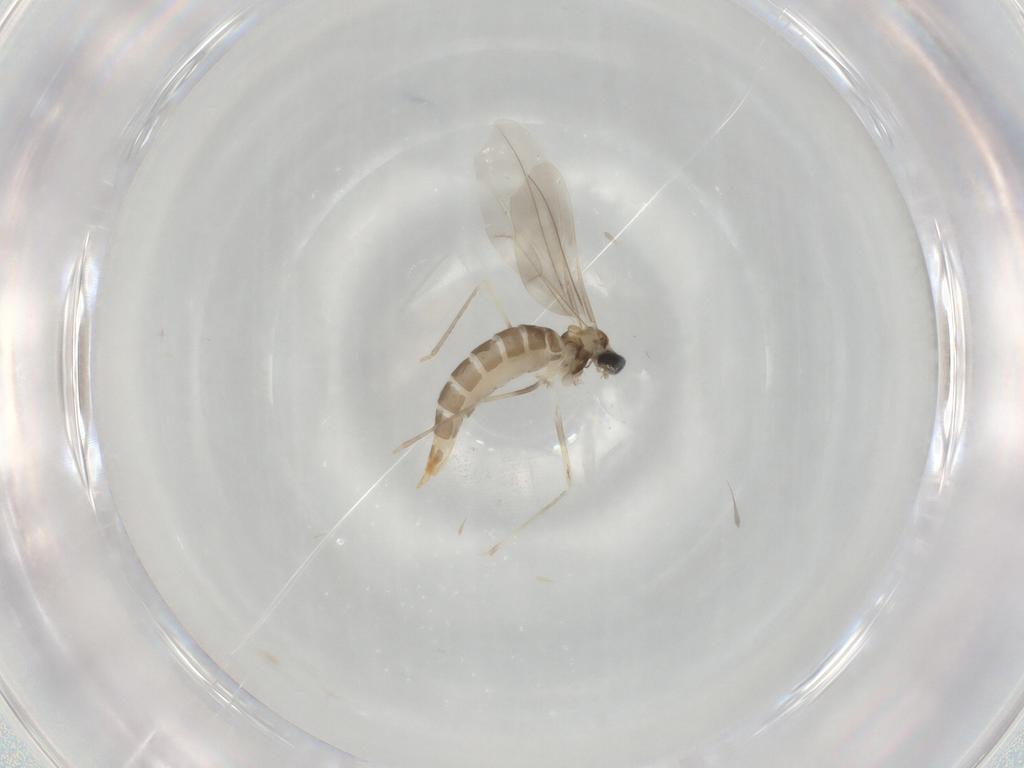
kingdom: Animalia
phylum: Arthropoda
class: Insecta
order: Diptera
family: Cecidomyiidae
